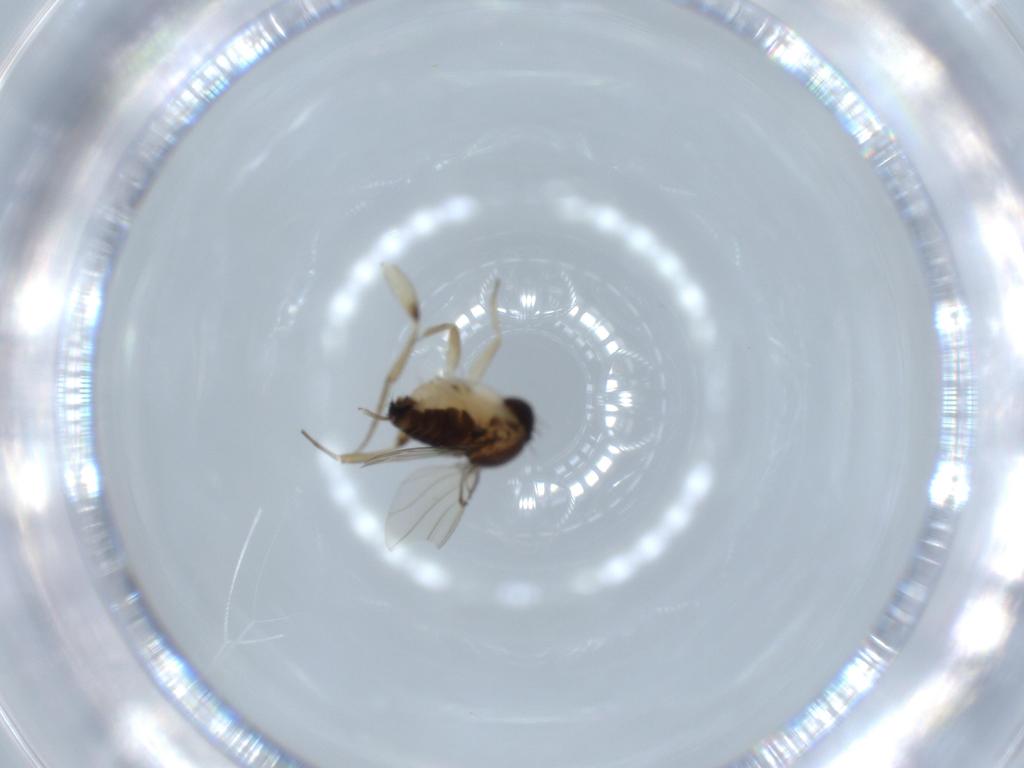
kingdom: Animalia
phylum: Arthropoda
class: Insecta
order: Diptera
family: Phoridae
